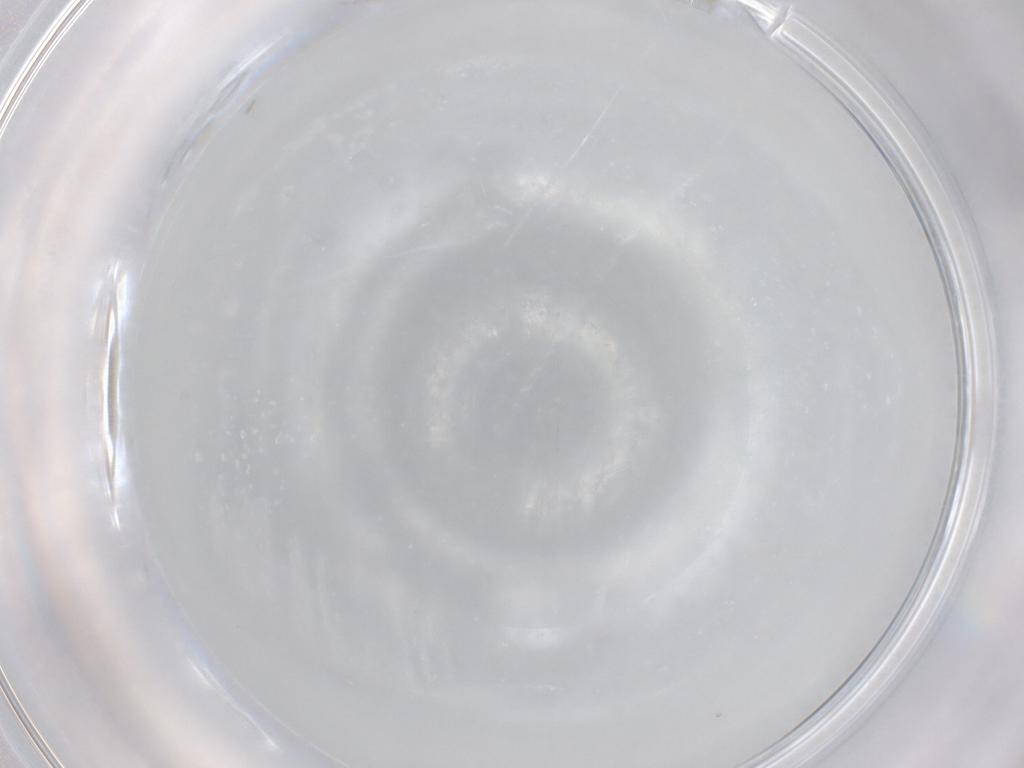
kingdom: Animalia
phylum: Arthropoda
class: Insecta
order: Diptera
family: Cecidomyiidae
